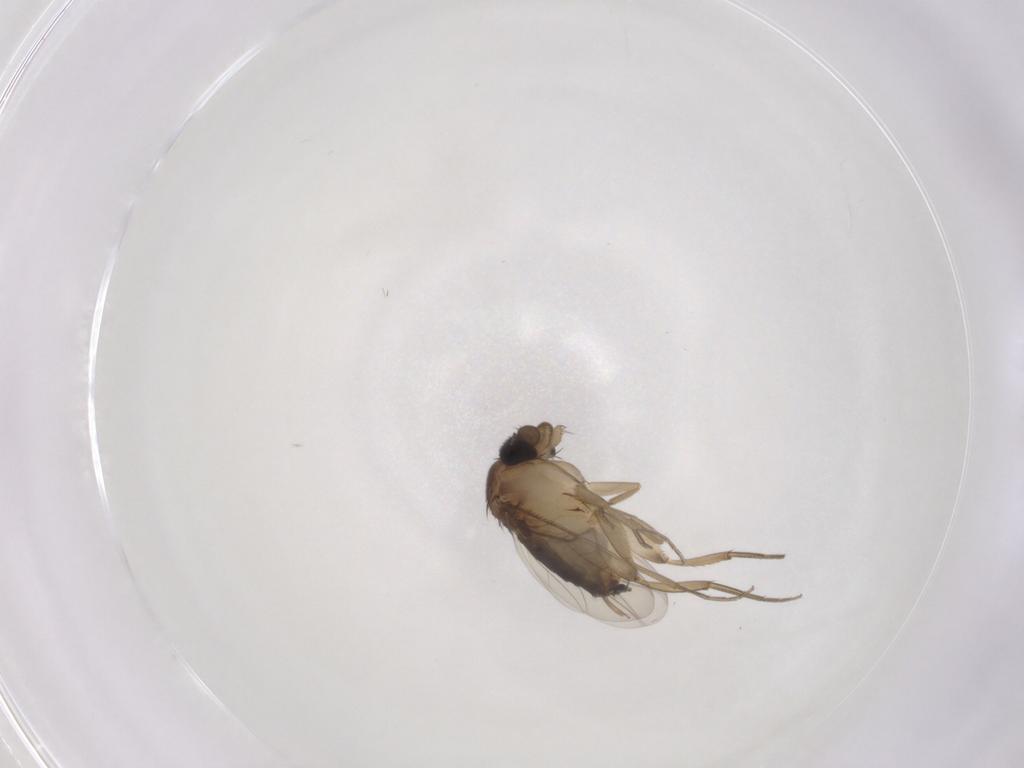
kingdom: Animalia
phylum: Arthropoda
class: Insecta
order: Diptera
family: Phoridae
